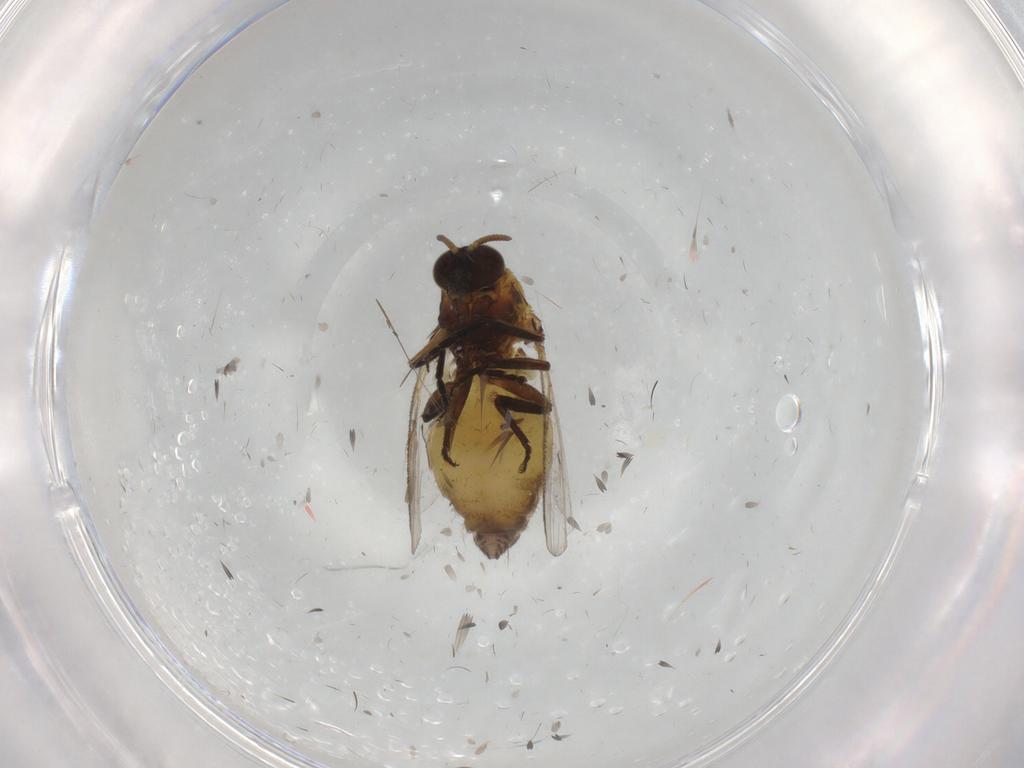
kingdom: Animalia
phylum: Arthropoda
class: Insecta
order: Diptera
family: Simuliidae
